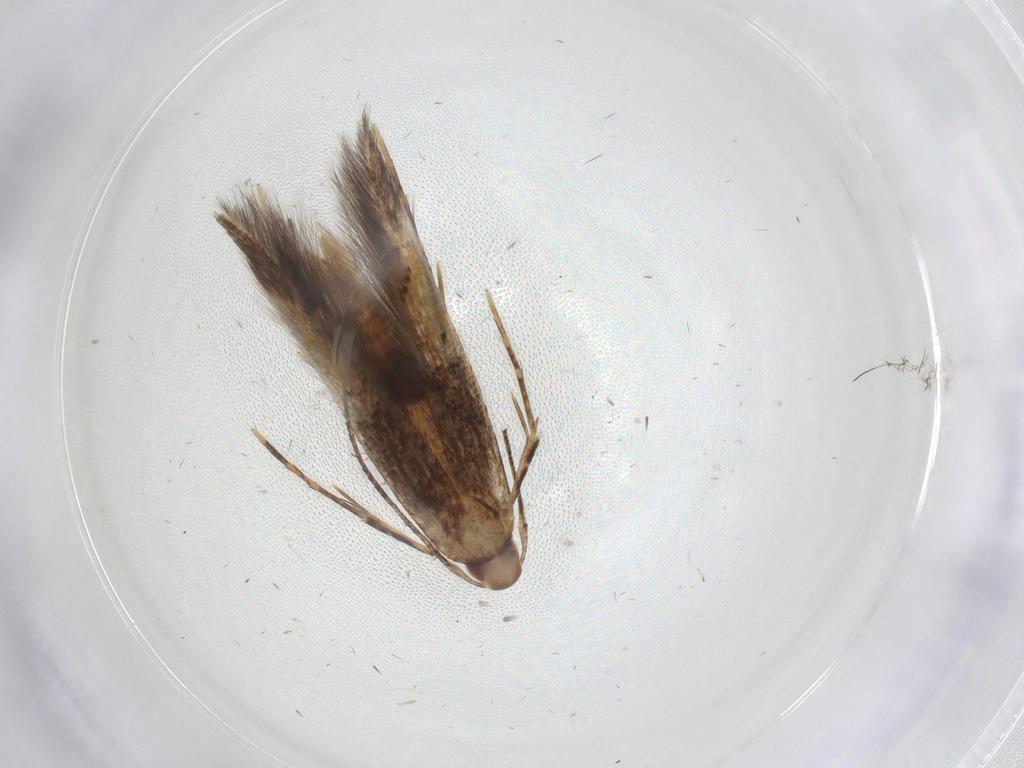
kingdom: Animalia
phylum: Arthropoda
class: Insecta
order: Lepidoptera
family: Cosmopterigidae
